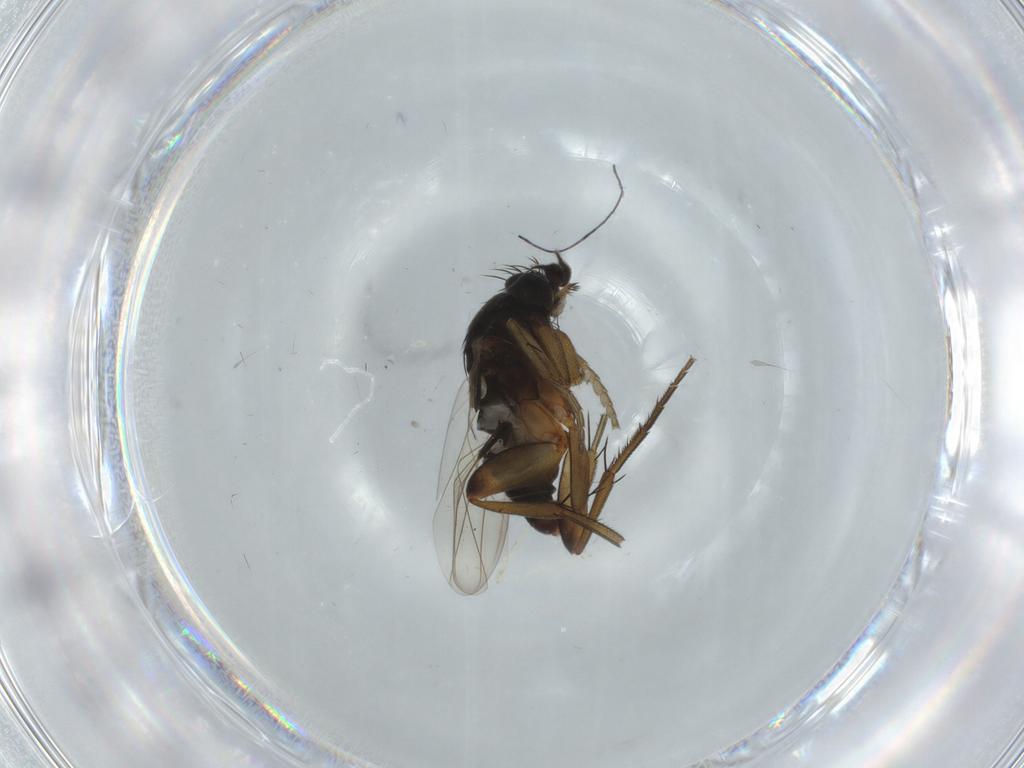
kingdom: Animalia
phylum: Arthropoda
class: Insecta
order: Diptera
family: Phoridae
